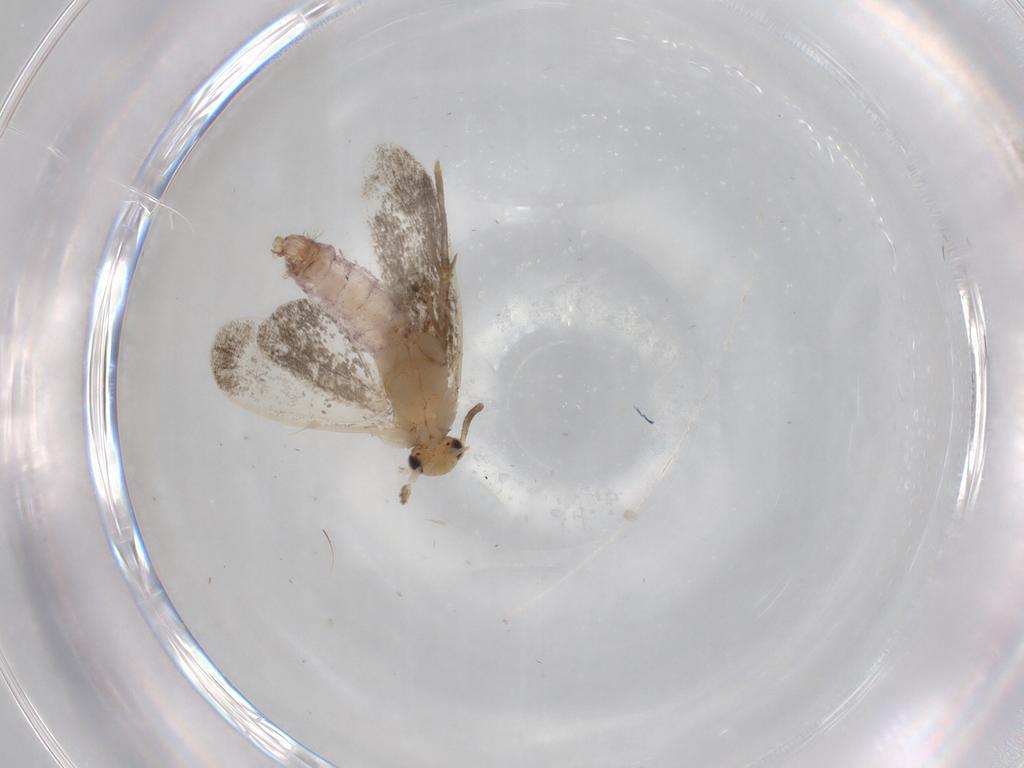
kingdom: Animalia
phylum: Arthropoda
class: Insecta
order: Lepidoptera
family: Dryadaulidae
